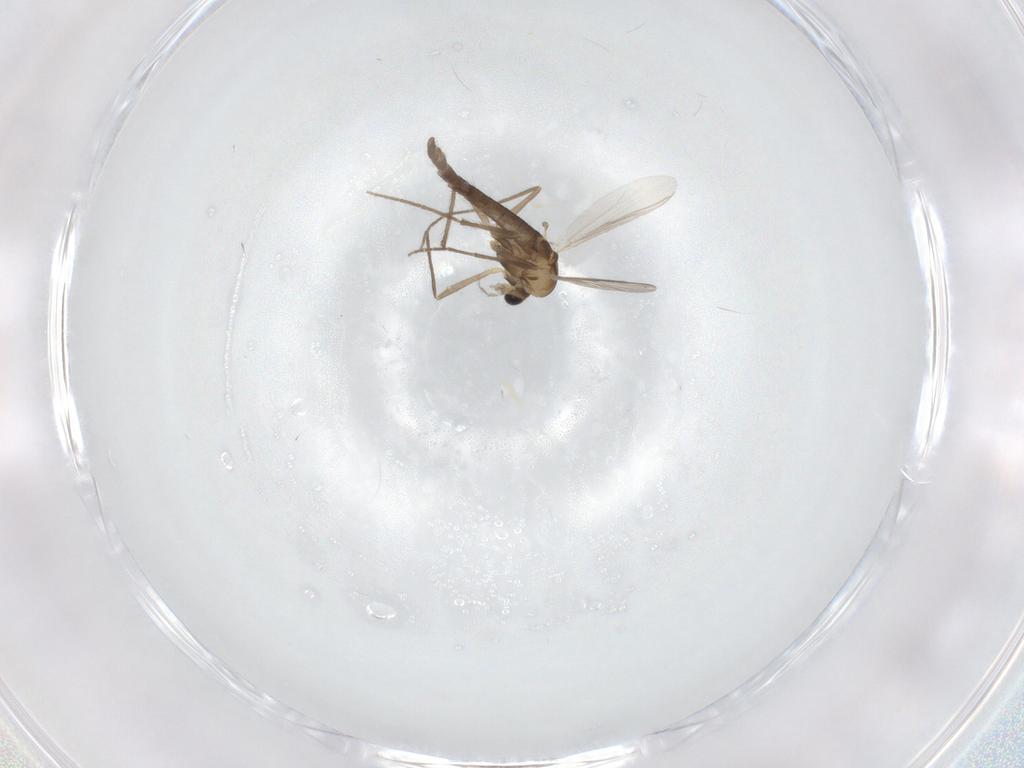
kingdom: Animalia
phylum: Arthropoda
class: Insecta
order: Diptera
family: Chironomidae
